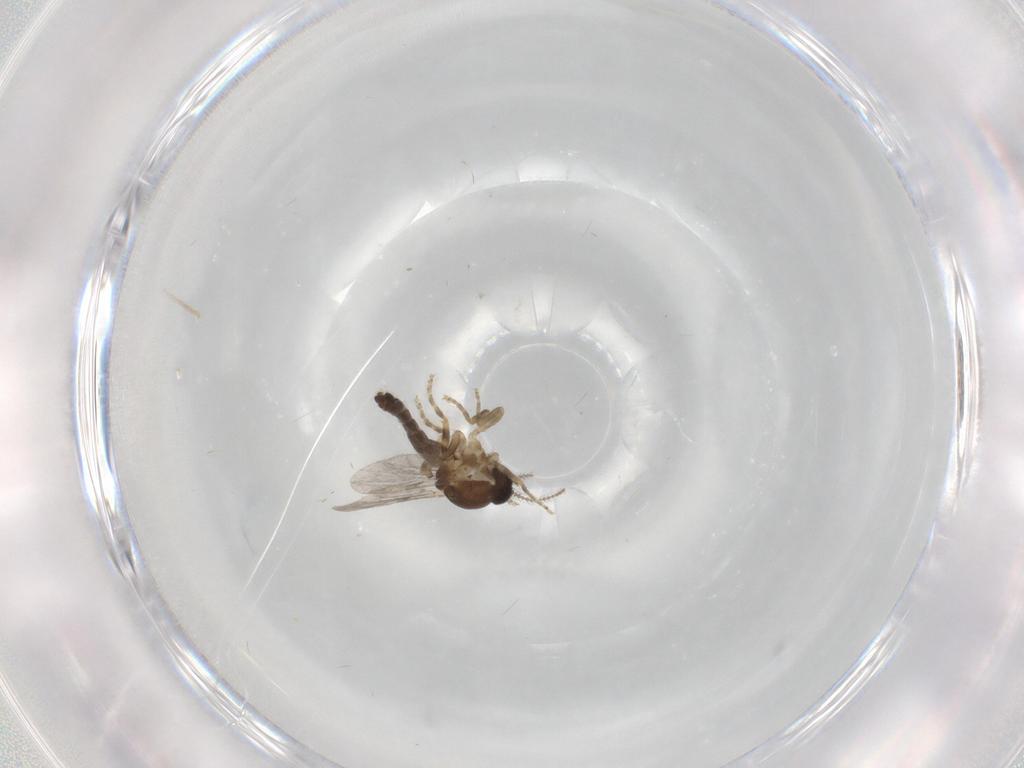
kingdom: Animalia
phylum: Arthropoda
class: Insecta
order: Diptera
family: Ceratopogonidae
